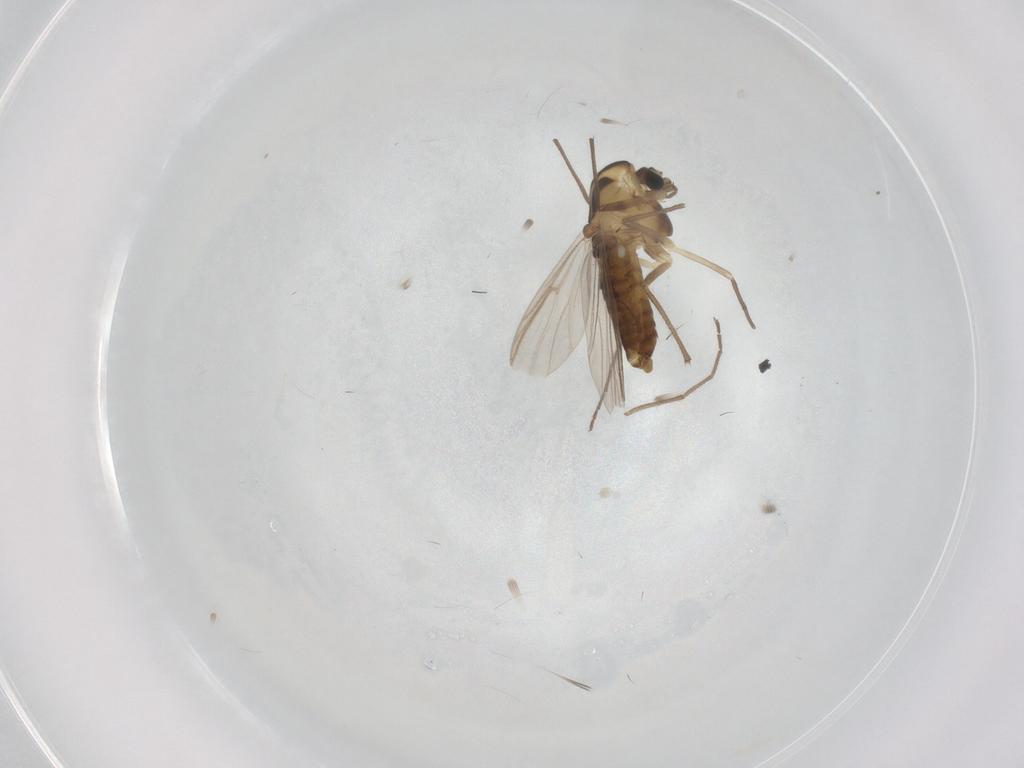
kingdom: Animalia
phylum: Arthropoda
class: Insecta
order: Diptera
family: Chironomidae
